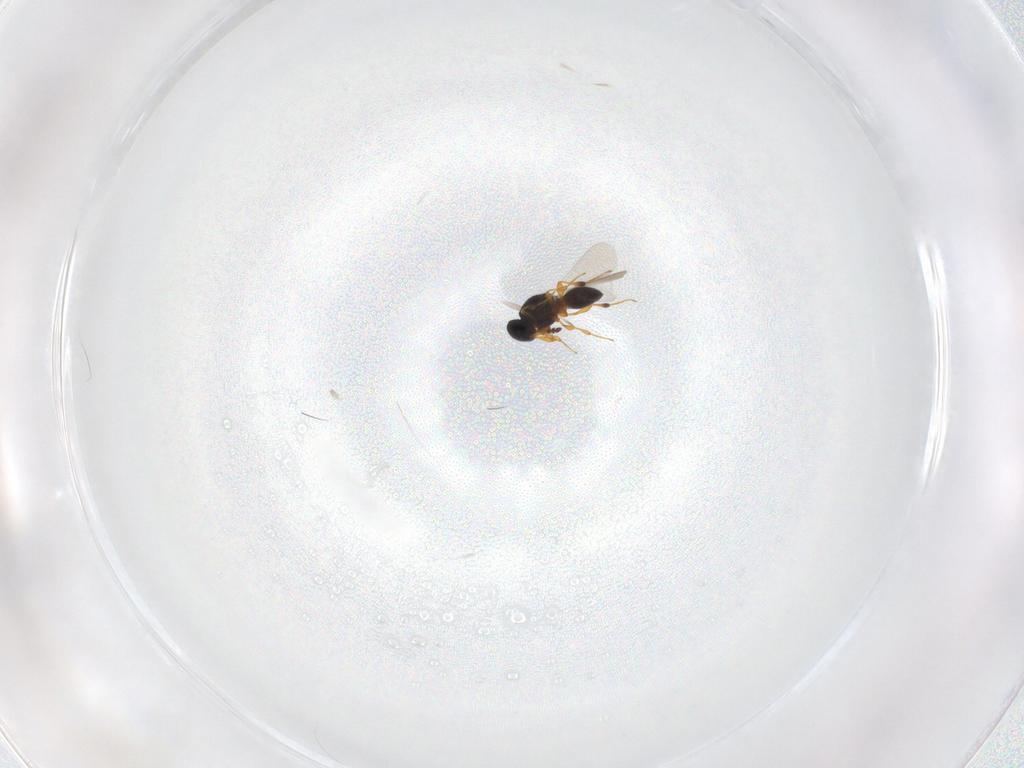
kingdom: Animalia
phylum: Arthropoda
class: Insecta
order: Hymenoptera
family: Platygastridae
